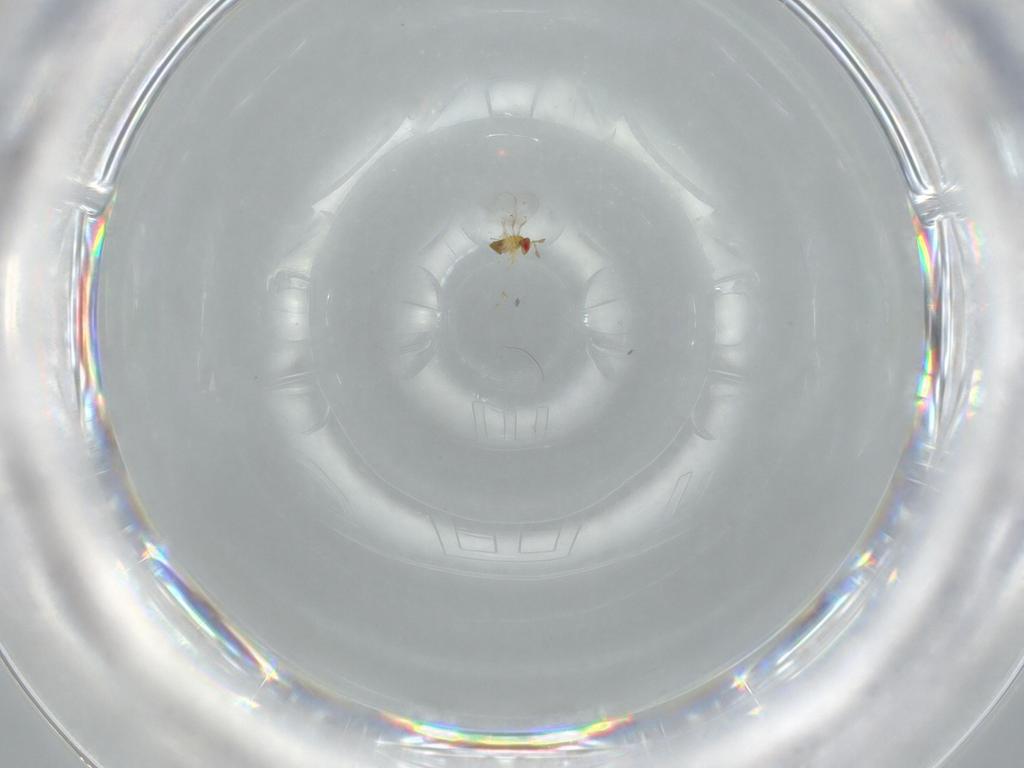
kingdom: Animalia
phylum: Arthropoda
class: Insecta
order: Hymenoptera
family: Trichogrammatidae
